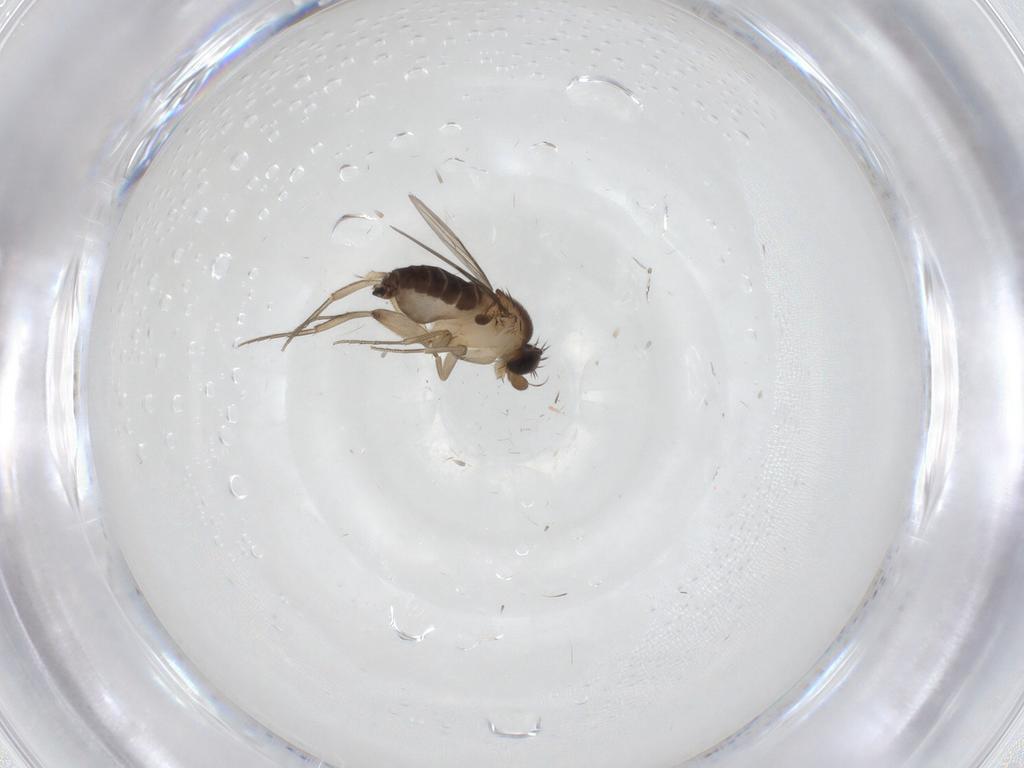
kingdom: Animalia
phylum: Arthropoda
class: Insecta
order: Diptera
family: Phoridae
